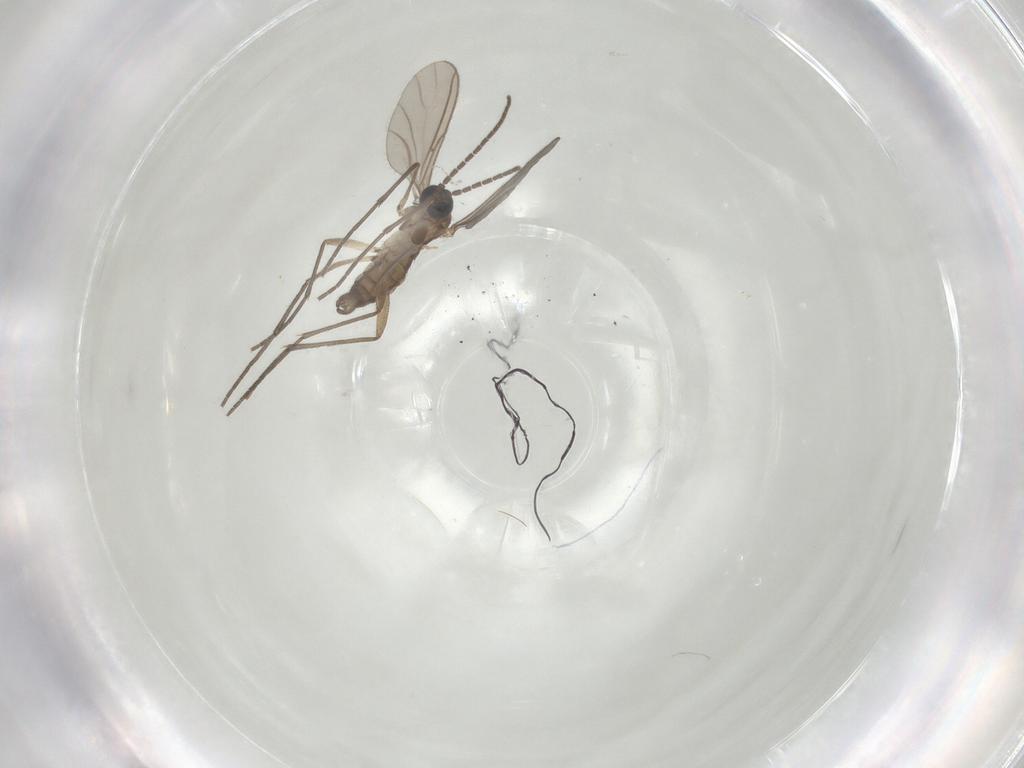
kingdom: Animalia
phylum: Arthropoda
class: Insecta
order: Diptera
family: Sciaridae
